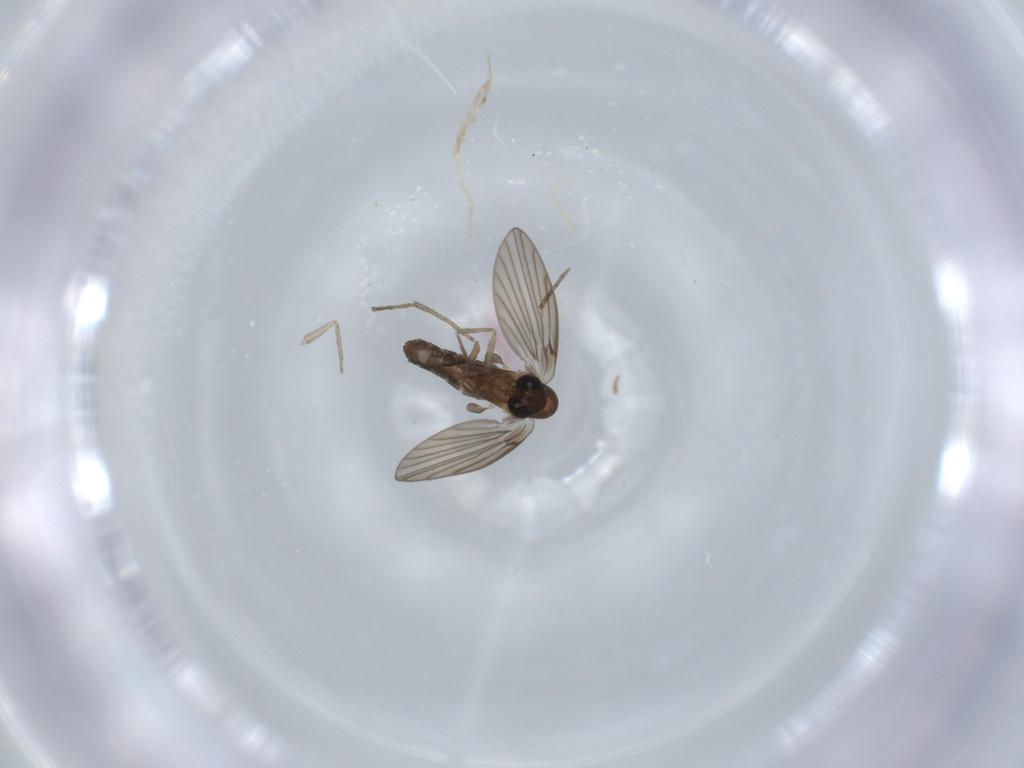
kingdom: Animalia
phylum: Arthropoda
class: Insecta
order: Diptera
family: Psychodidae
